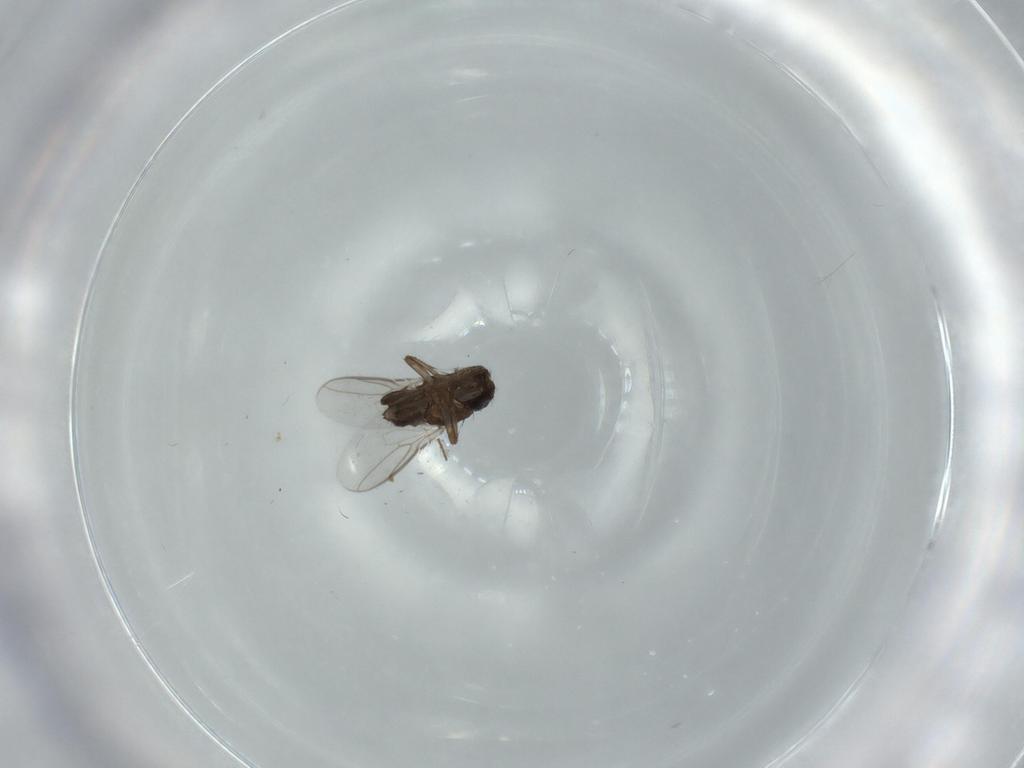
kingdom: Animalia
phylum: Arthropoda
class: Insecta
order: Diptera
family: Sphaeroceridae
